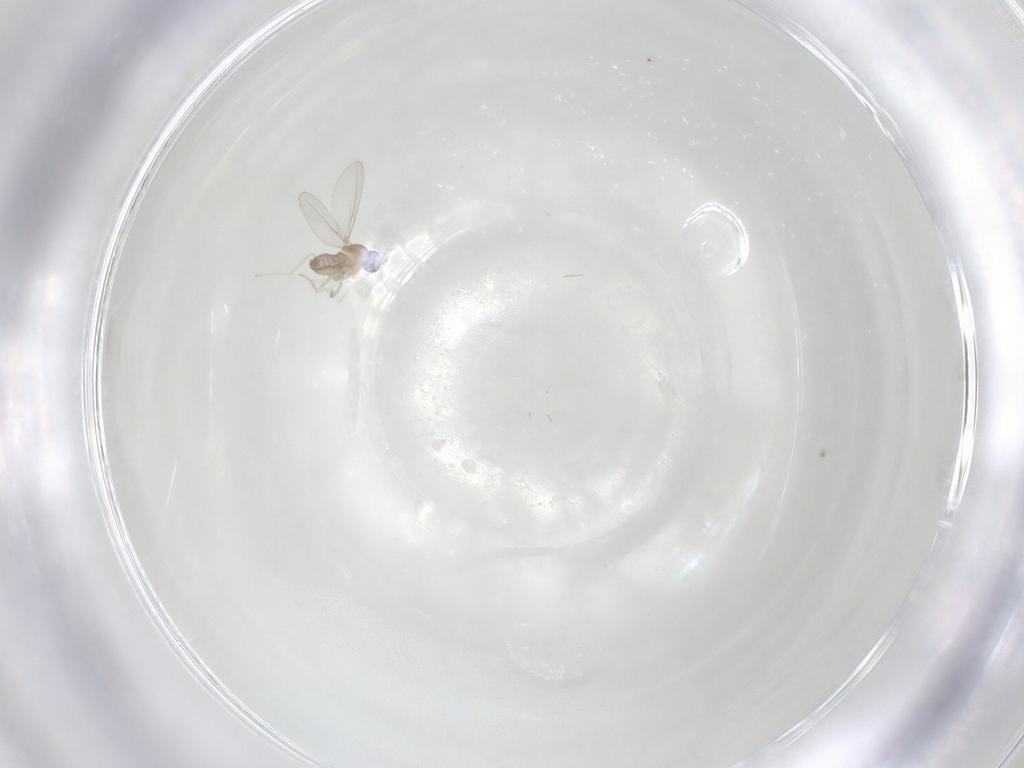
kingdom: Animalia
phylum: Arthropoda
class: Insecta
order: Diptera
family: Cecidomyiidae
